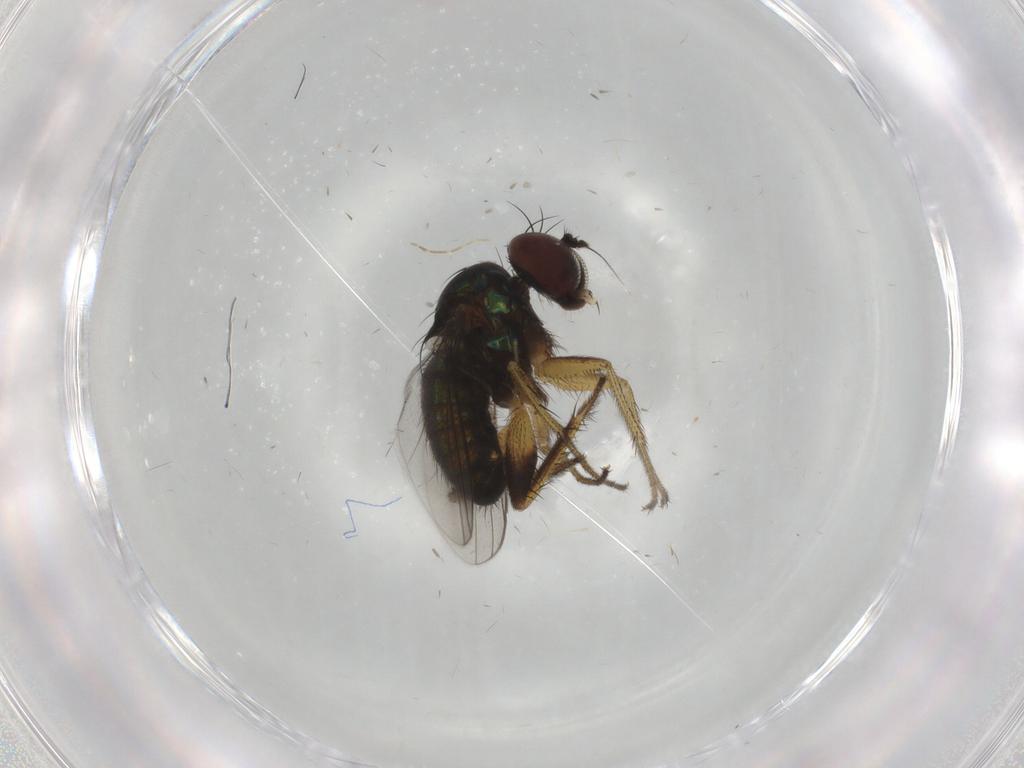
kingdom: Animalia
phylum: Arthropoda
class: Insecta
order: Diptera
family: Dolichopodidae
